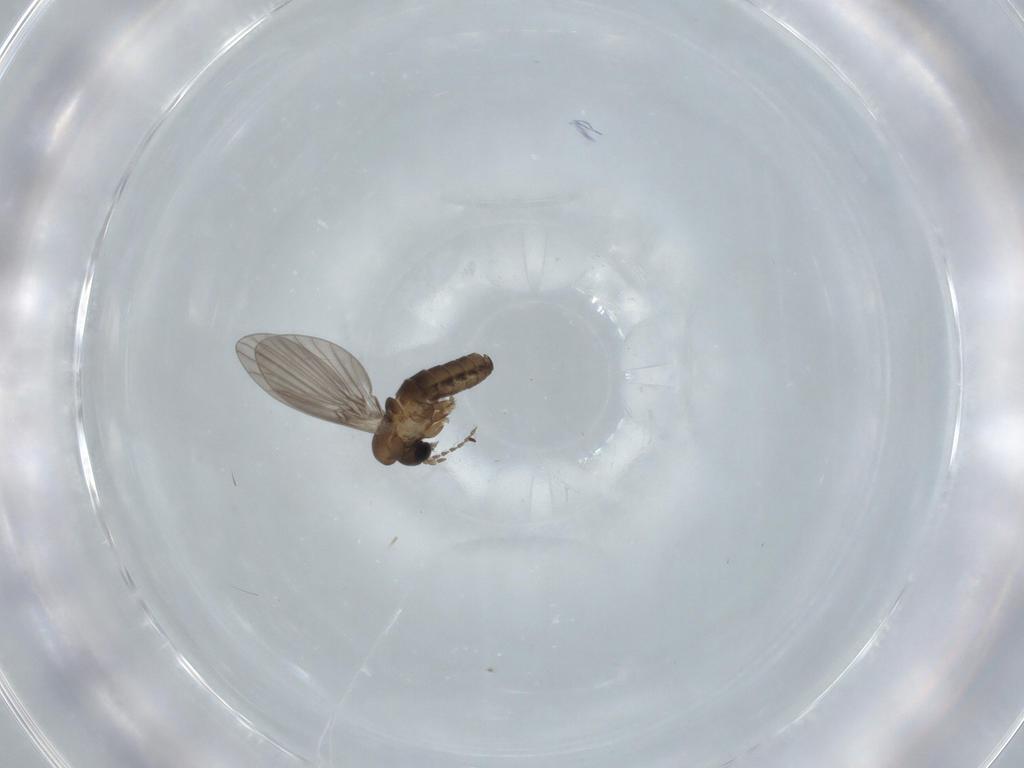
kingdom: Animalia
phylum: Arthropoda
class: Insecta
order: Diptera
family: Psychodidae
